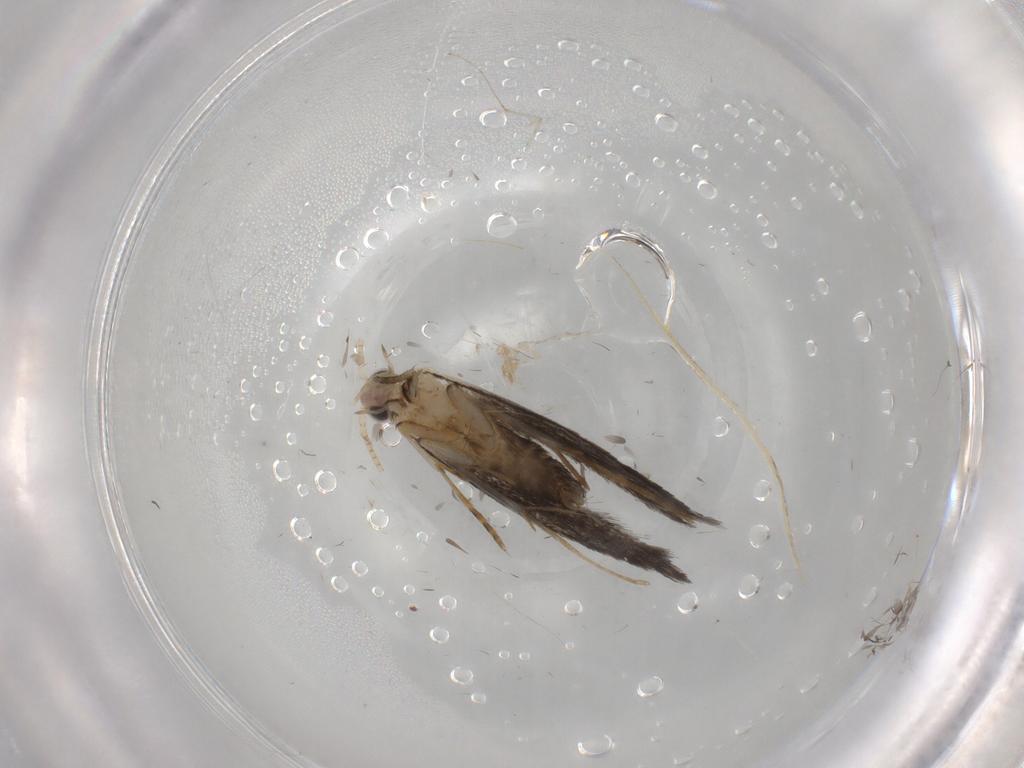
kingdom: Animalia
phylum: Arthropoda
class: Insecta
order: Lepidoptera
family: Tineidae
